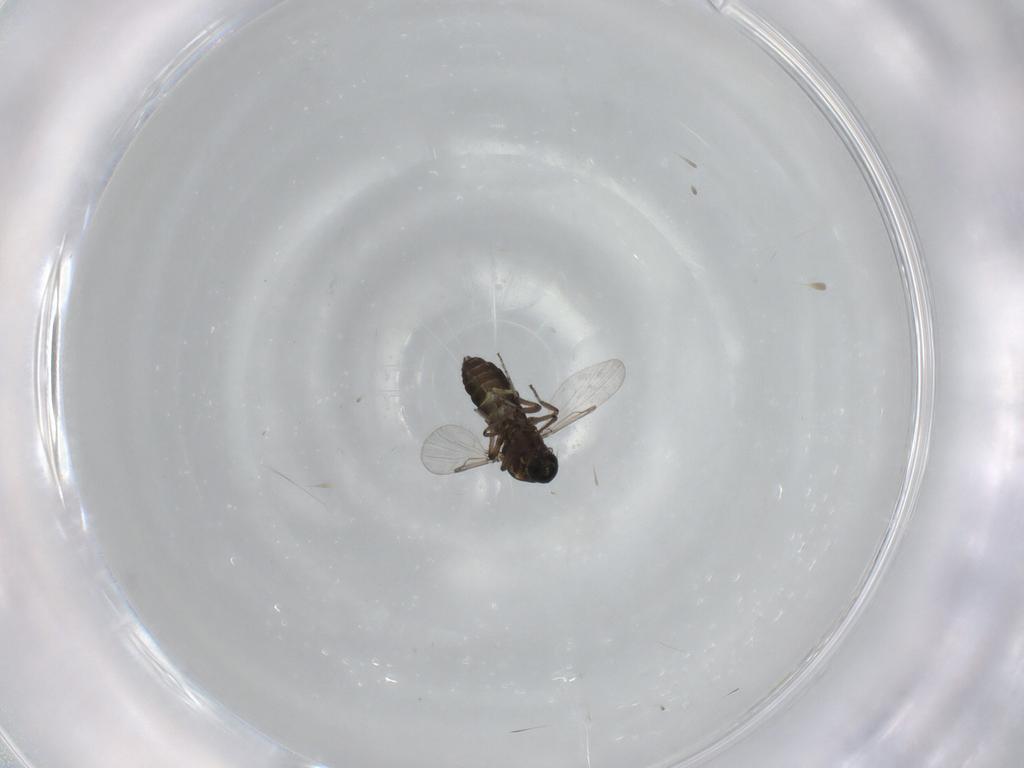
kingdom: Animalia
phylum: Arthropoda
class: Insecta
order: Diptera
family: Ceratopogonidae
